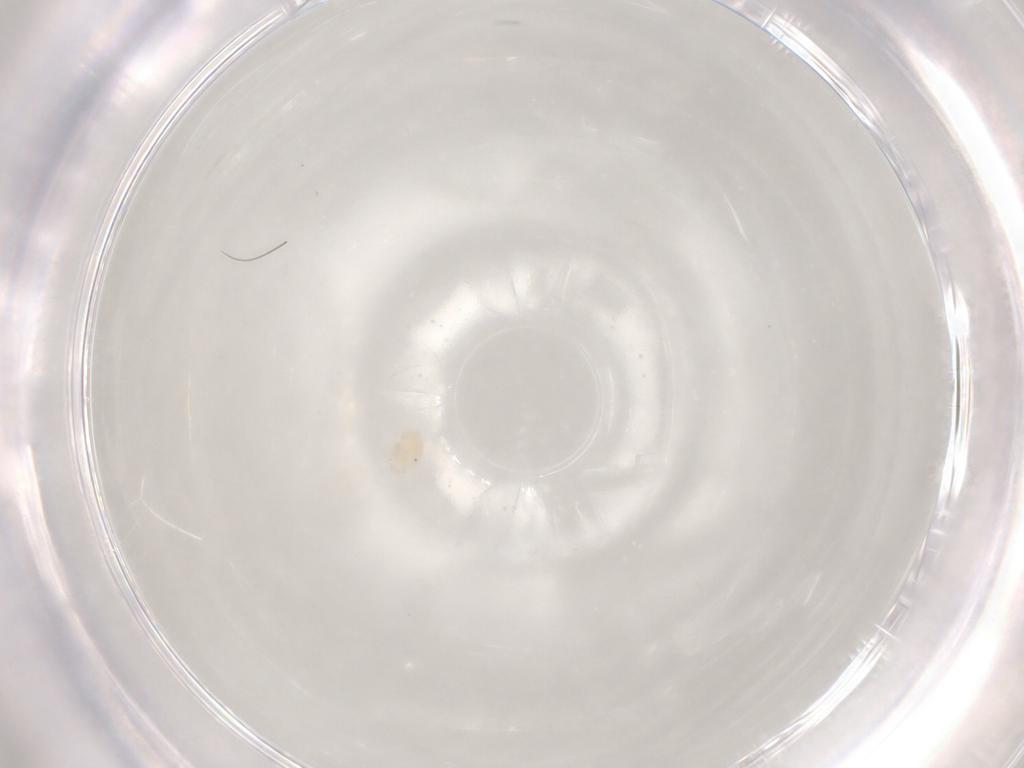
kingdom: Animalia
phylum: Arthropoda
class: Arachnida
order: Trombidiformes
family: Anystidae
